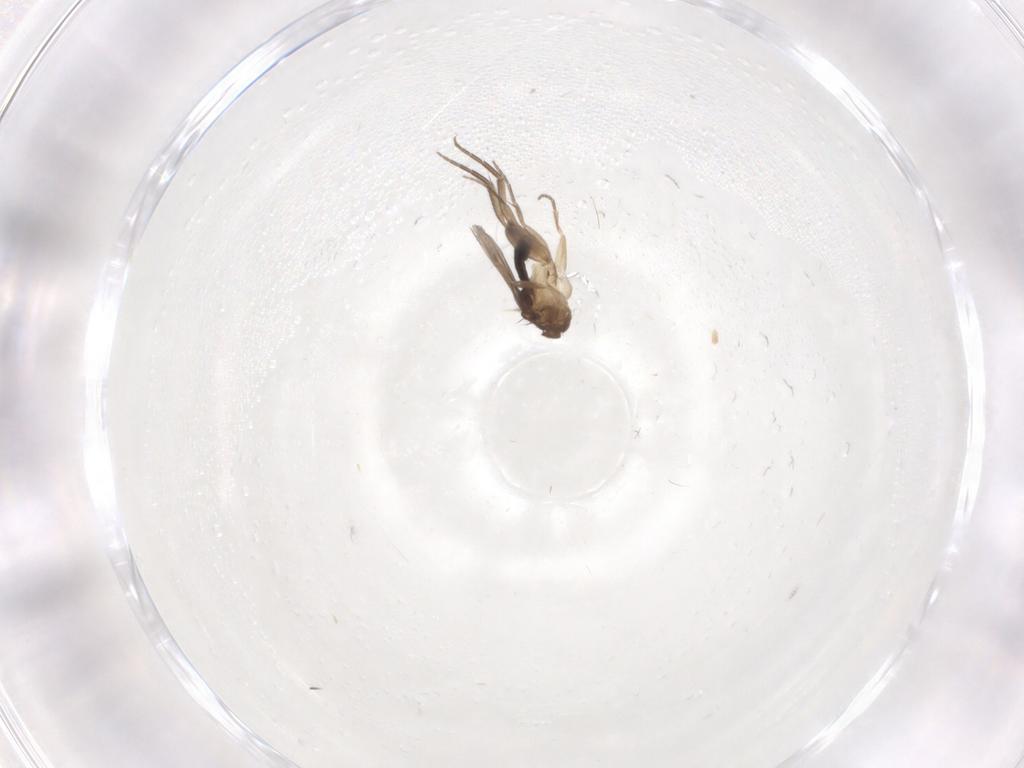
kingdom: Animalia
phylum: Arthropoda
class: Insecta
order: Diptera
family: Phoridae
